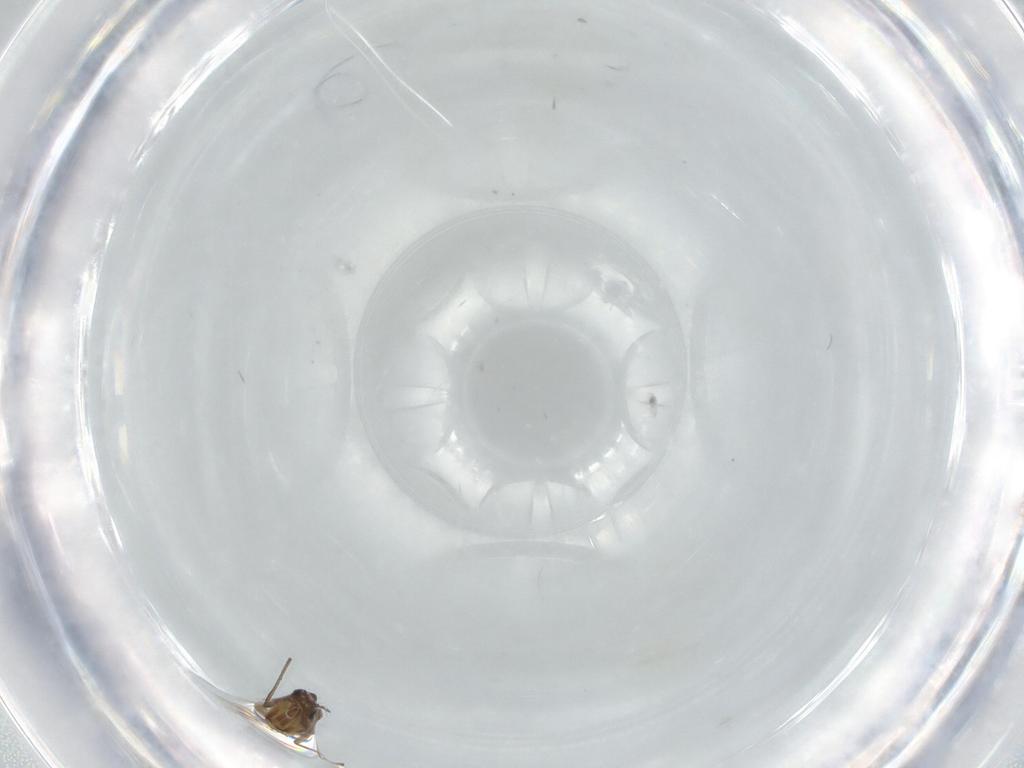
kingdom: Animalia
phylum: Arthropoda
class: Insecta
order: Diptera
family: Chironomidae
